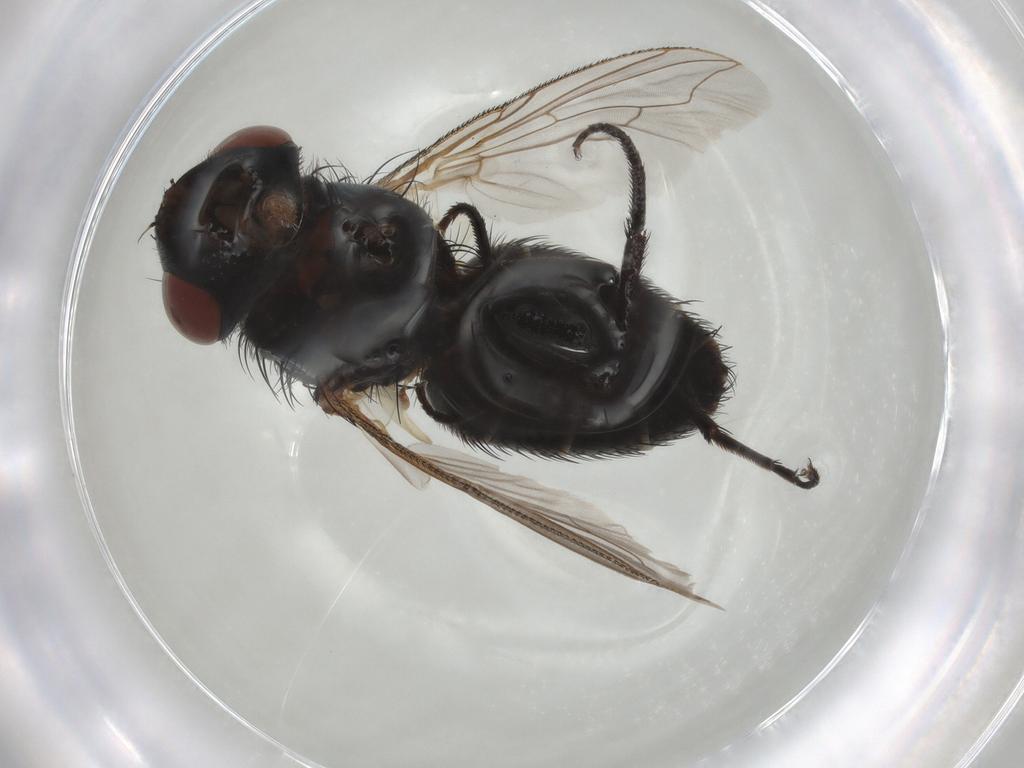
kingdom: Animalia
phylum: Arthropoda
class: Insecta
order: Diptera
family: Sarcophagidae
